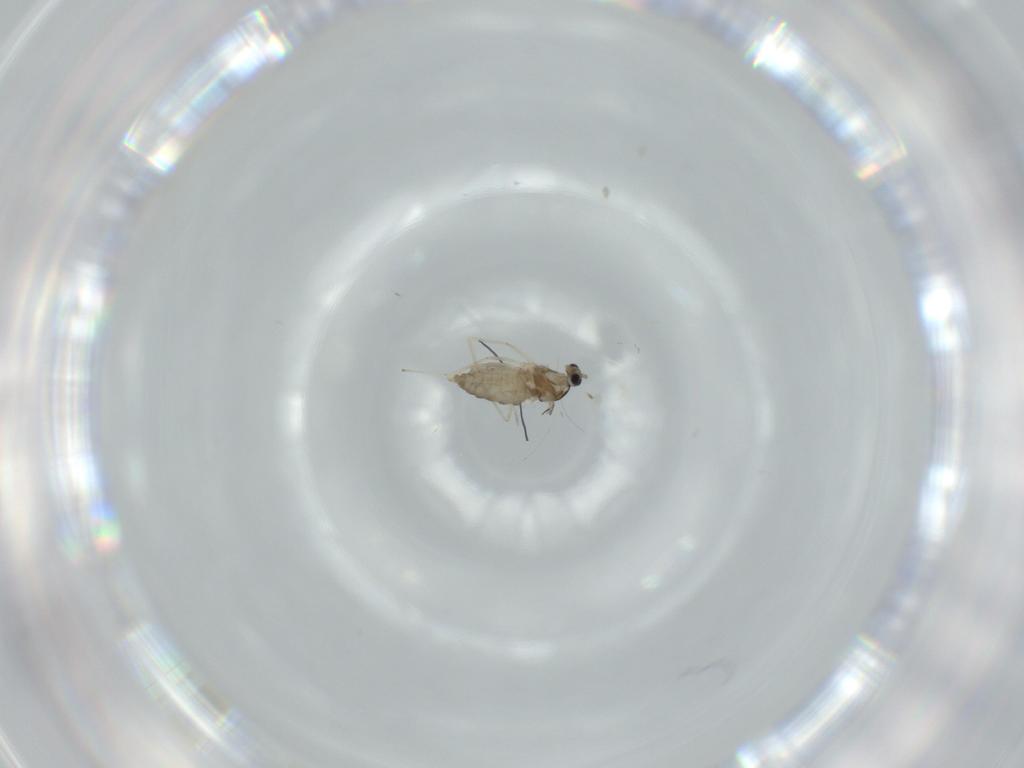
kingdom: Animalia
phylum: Arthropoda
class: Insecta
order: Diptera
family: Cecidomyiidae
